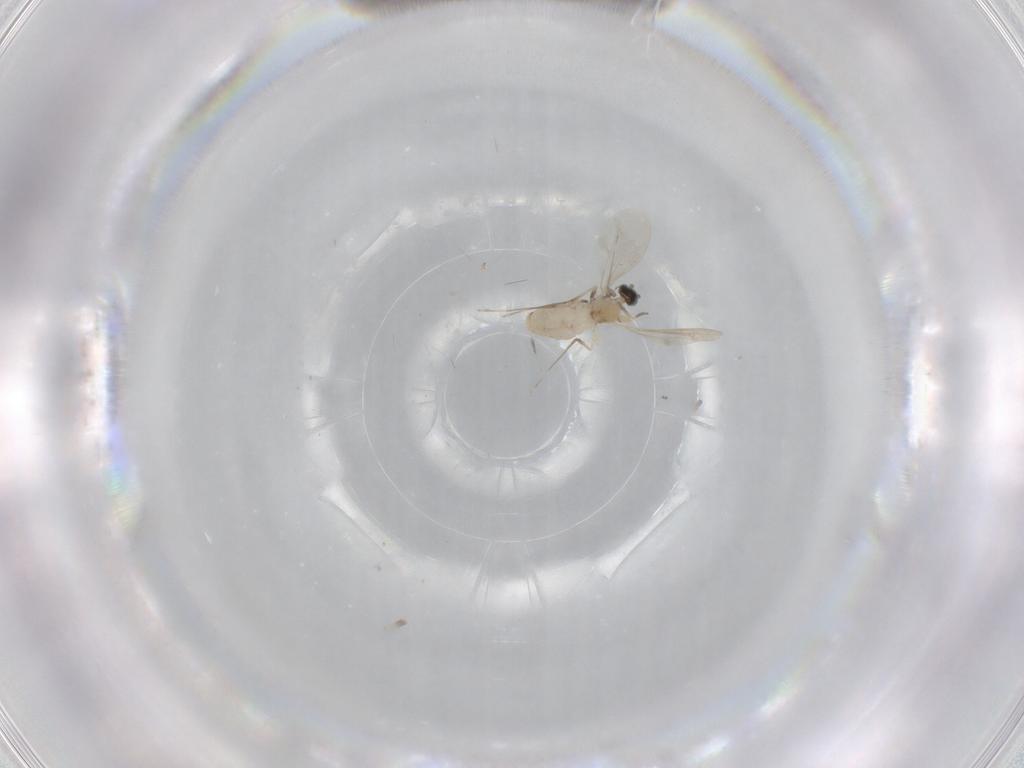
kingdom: Animalia
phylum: Arthropoda
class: Insecta
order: Diptera
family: Cecidomyiidae
